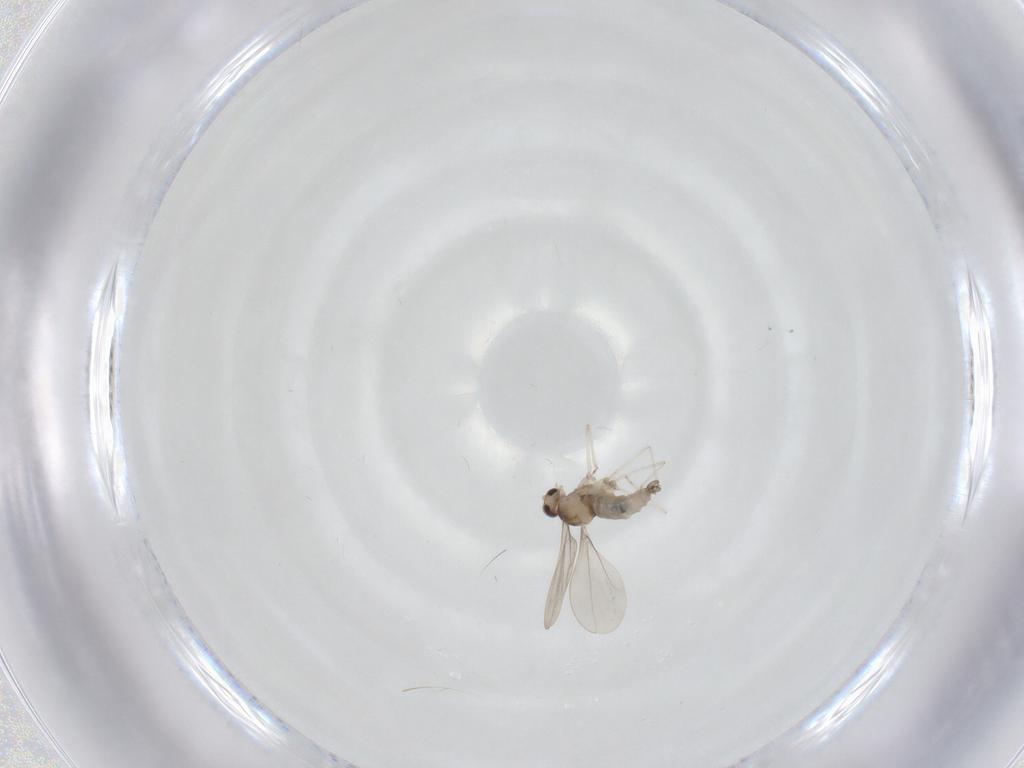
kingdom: Animalia
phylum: Arthropoda
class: Insecta
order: Diptera
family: Cecidomyiidae
